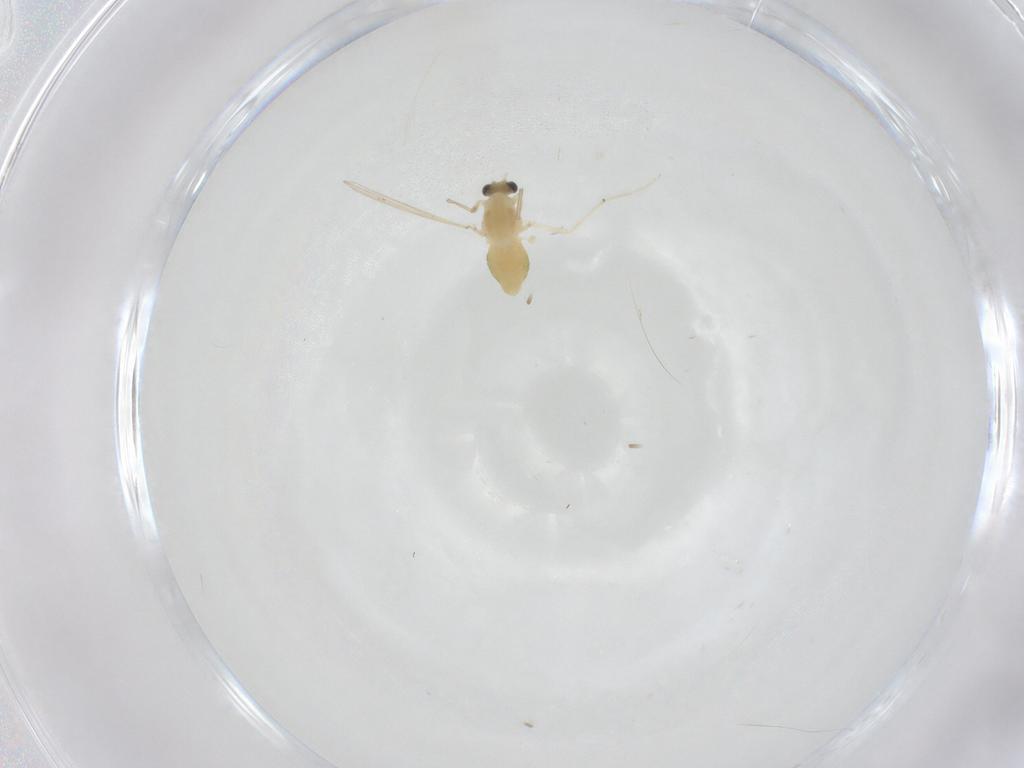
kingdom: Animalia
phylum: Arthropoda
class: Insecta
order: Diptera
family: Chironomidae
